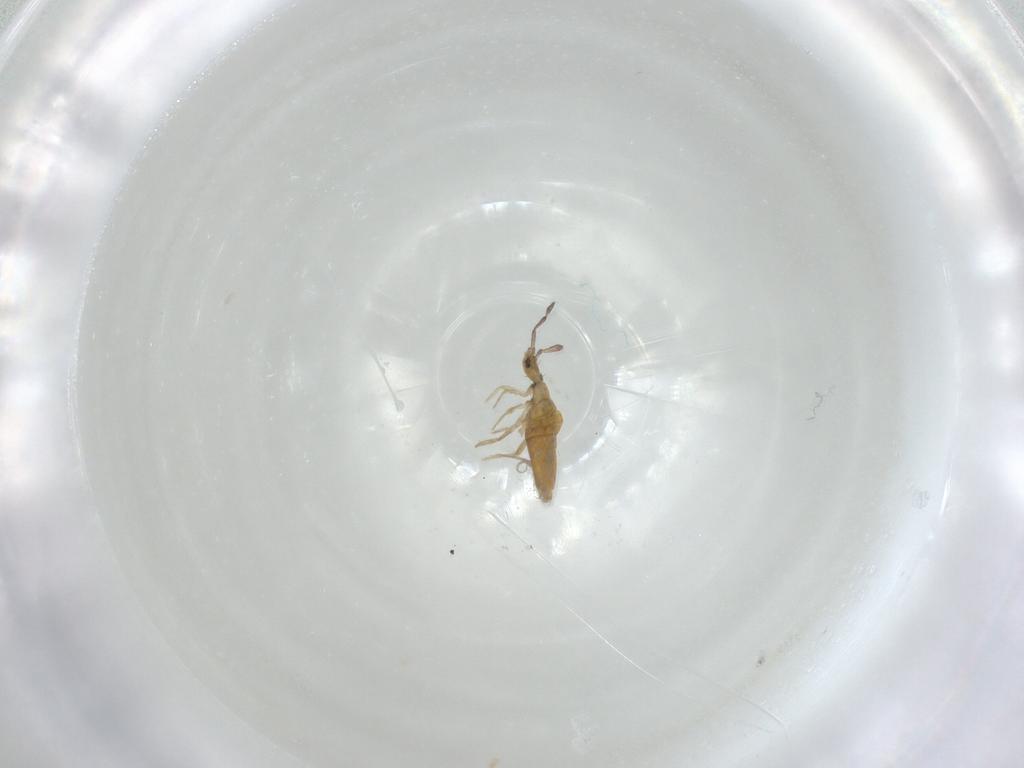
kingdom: Animalia
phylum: Arthropoda
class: Collembola
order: Entomobryomorpha
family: Entomobryidae
